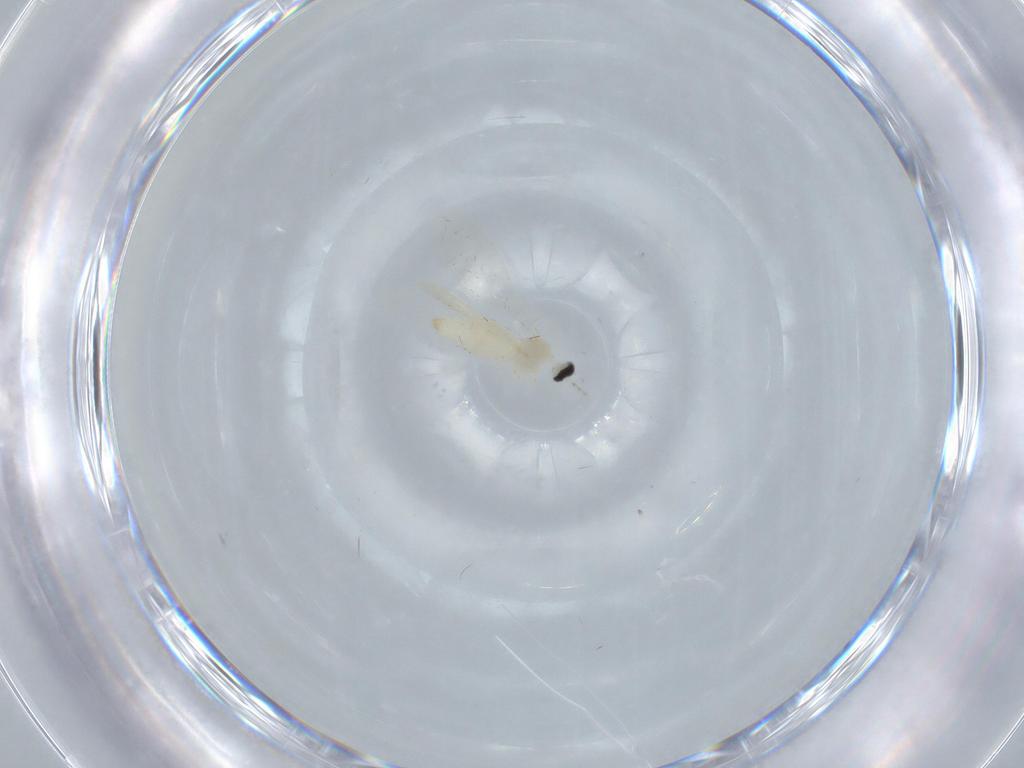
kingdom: Animalia
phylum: Arthropoda
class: Insecta
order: Diptera
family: Cecidomyiidae
